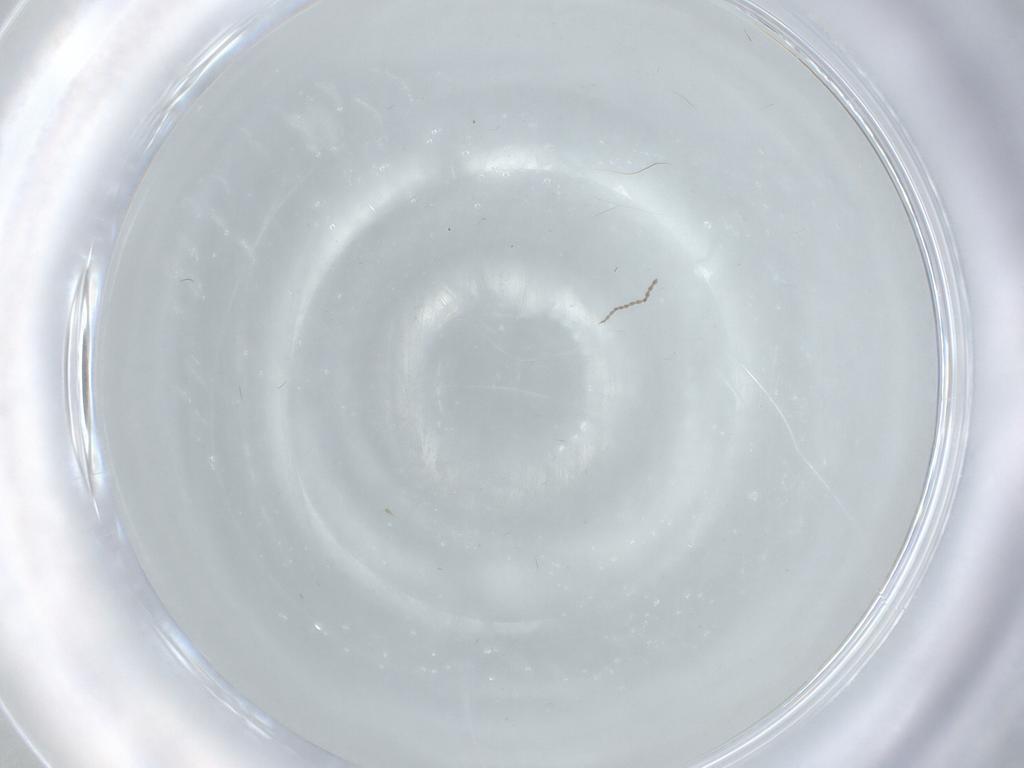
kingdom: Animalia
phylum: Arthropoda
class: Insecta
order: Diptera
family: Cecidomyiidae
